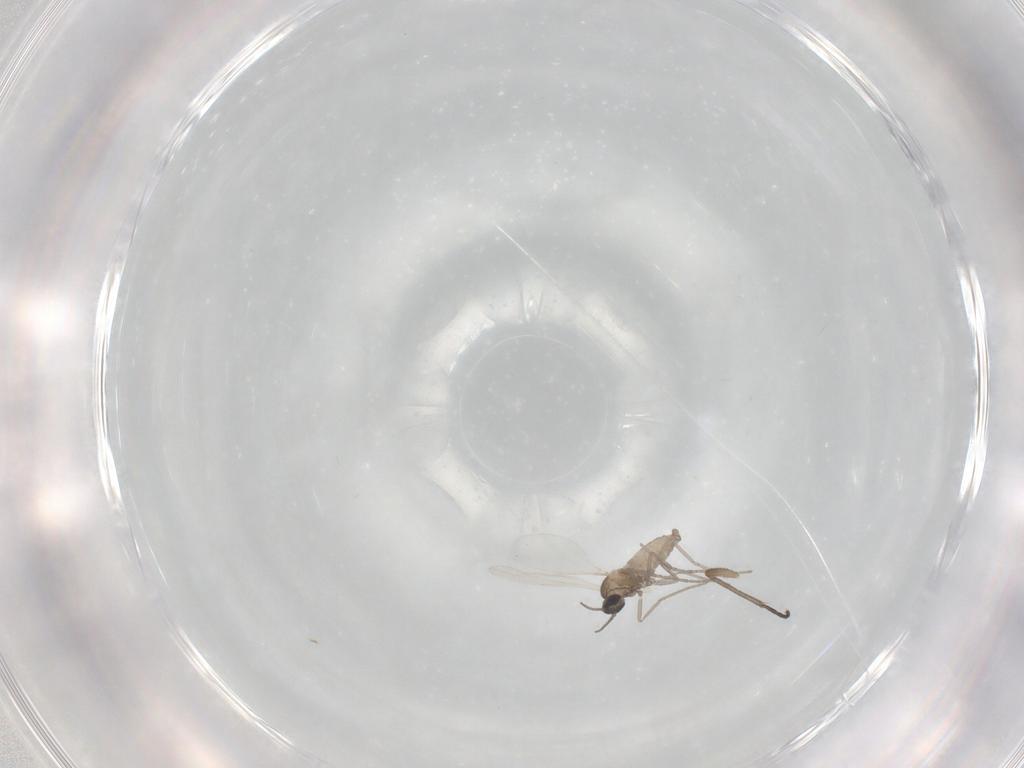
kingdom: Animalia
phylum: Arthropoda
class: Insecta
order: Diptera
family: Cecidomyiidae
